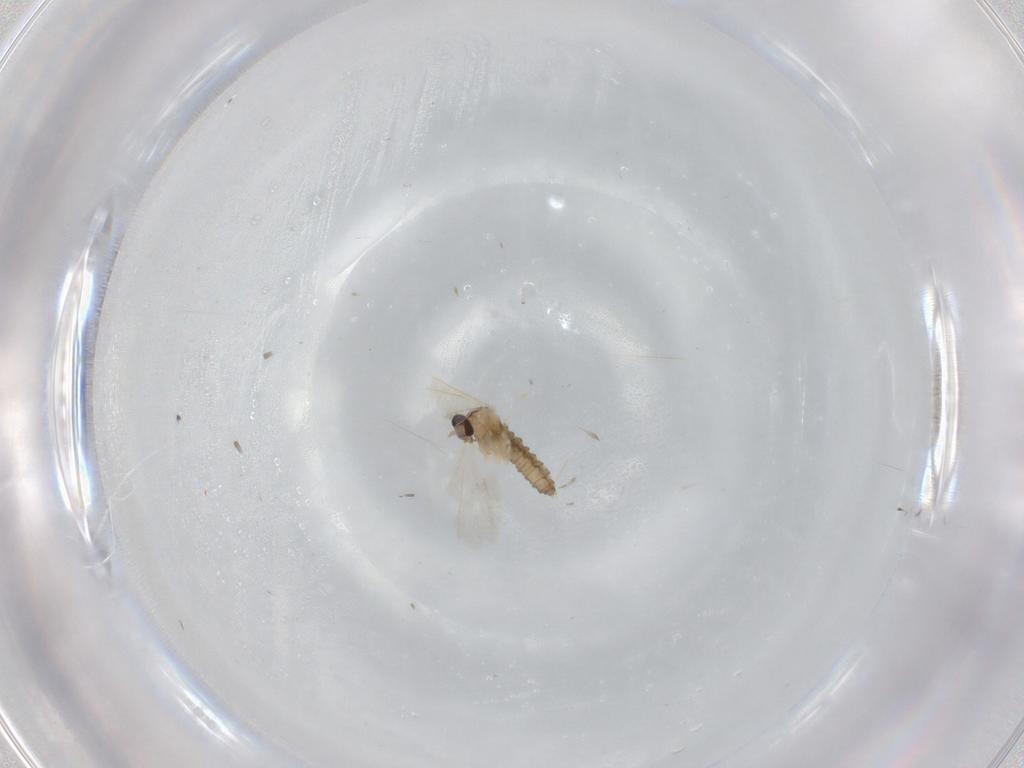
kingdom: Animalia
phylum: Arthropoda
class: Insecta
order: Diptera
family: Cecidomyiidae
